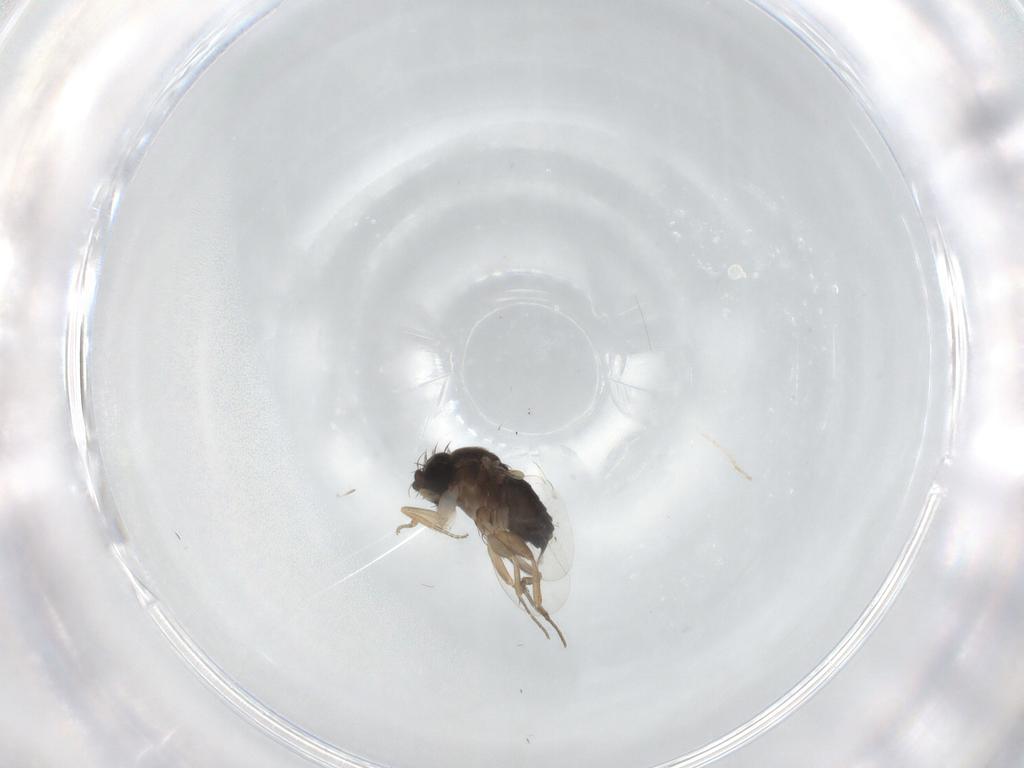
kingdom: Animalia
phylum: Arthropoda
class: Insecta
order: Diptera
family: Phoridae
